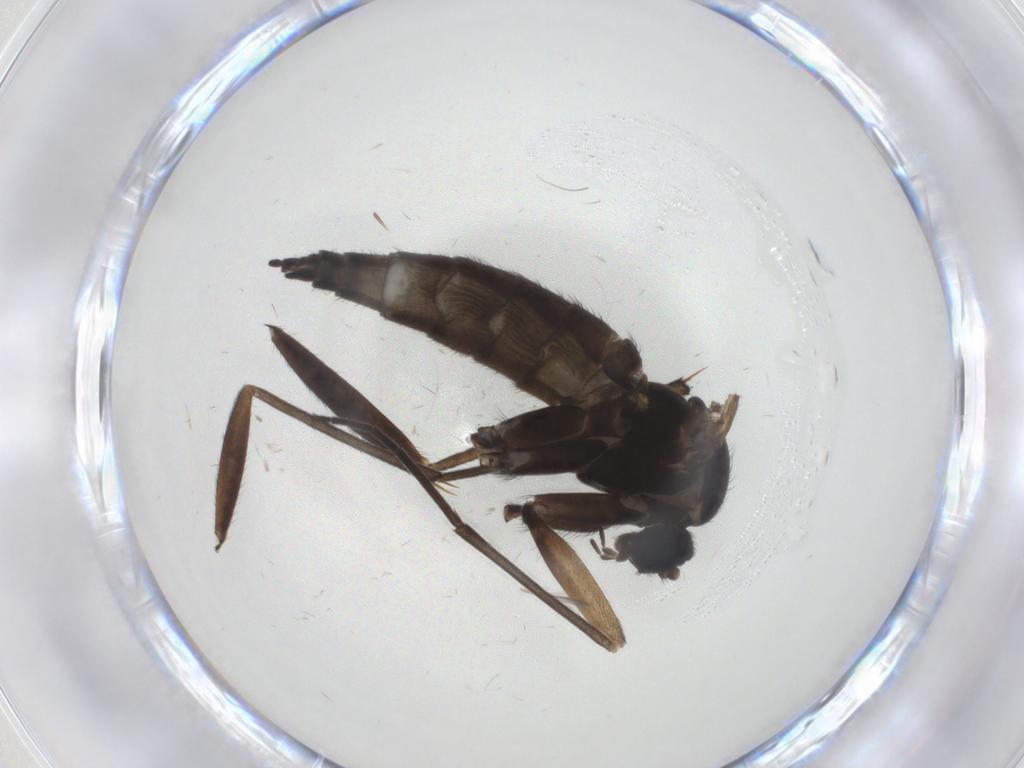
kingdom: Animalia
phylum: Arthropoda
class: Insecta
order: Diptera
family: Sciaridae
